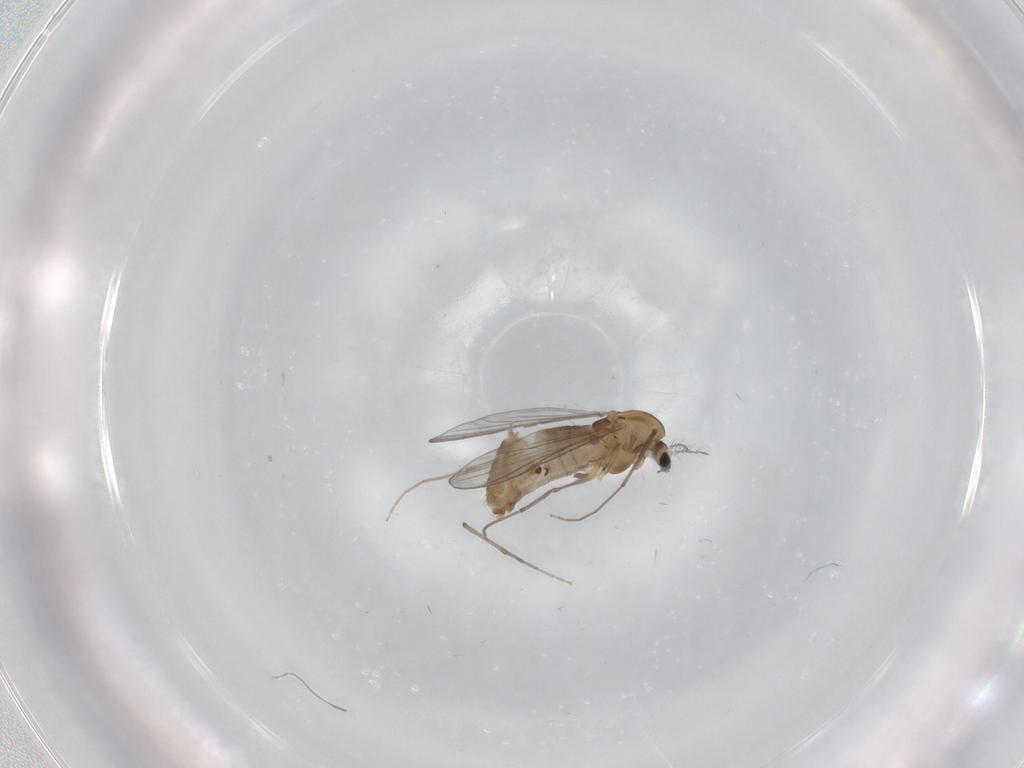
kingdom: Animalia
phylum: Arthropoda
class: Insecta
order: Diptera
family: Chironomidae
